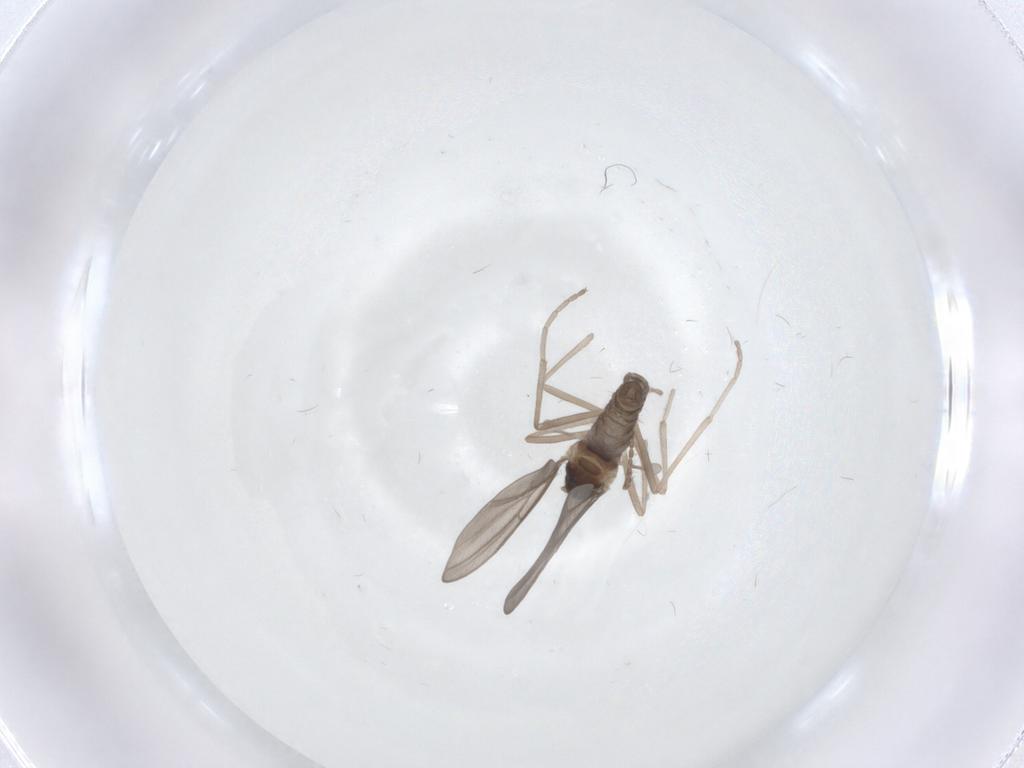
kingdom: Animalia
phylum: Arthropoda
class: Insecta
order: Diptera
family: Cecidomyiidae
